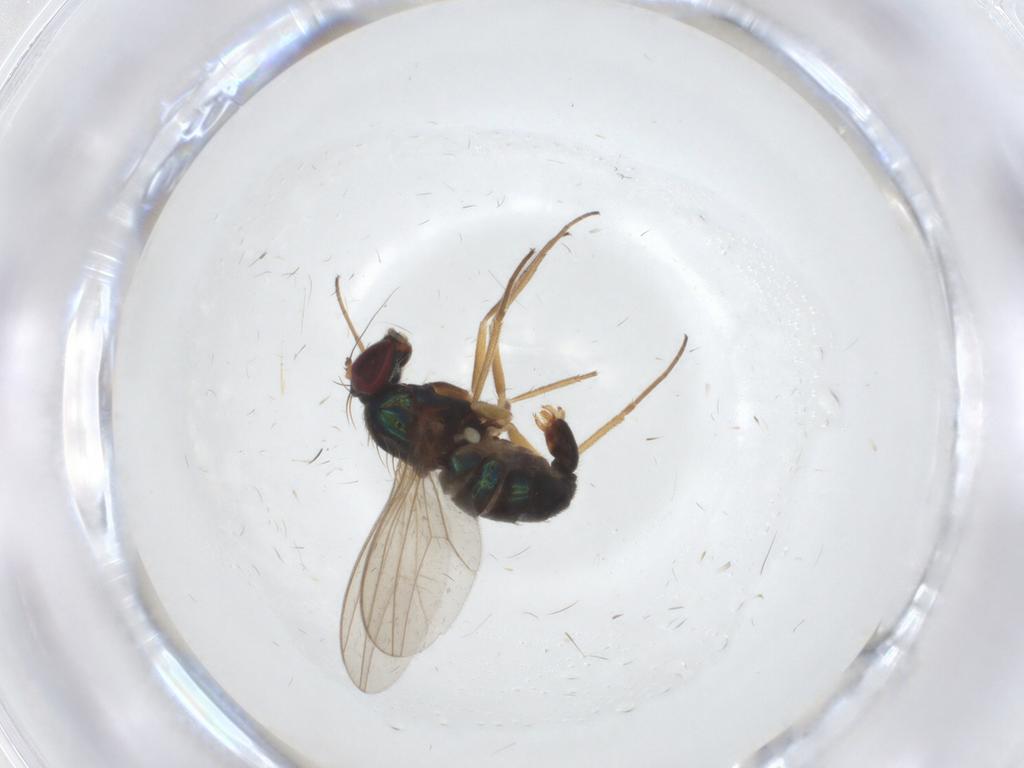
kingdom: Animalia
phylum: Arthropoda
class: Insecta
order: Diptera
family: Dolichopodidae
